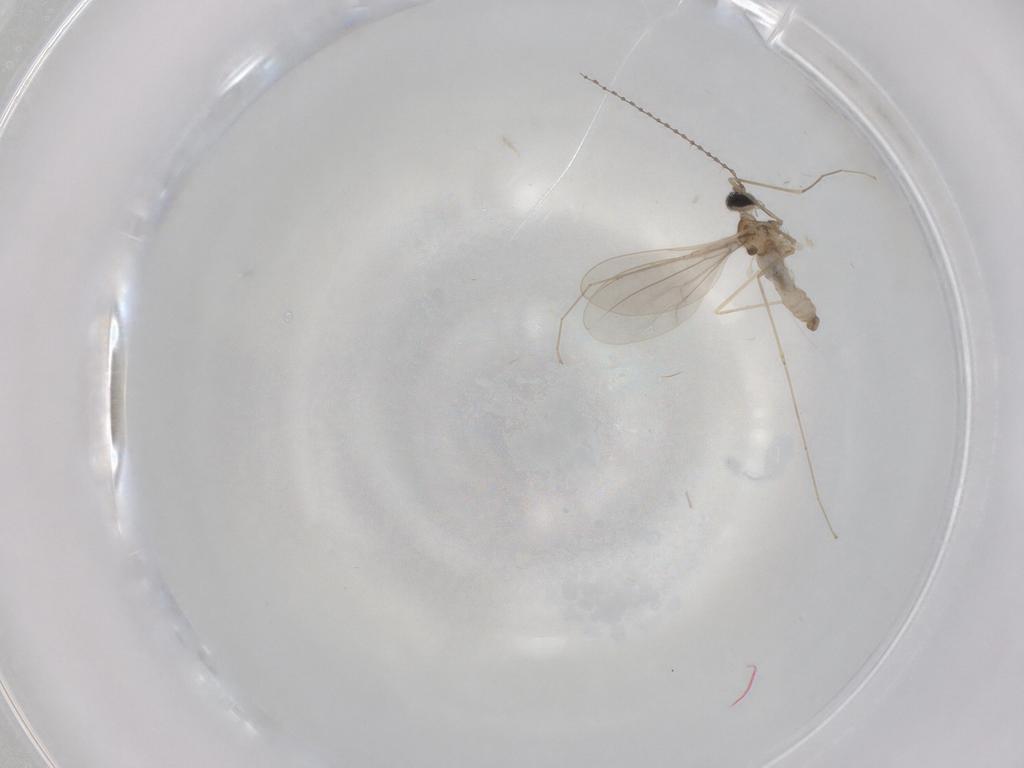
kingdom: Animalia
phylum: Arthropoda
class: Insecta
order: Diptera
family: Cecidomyiidae
